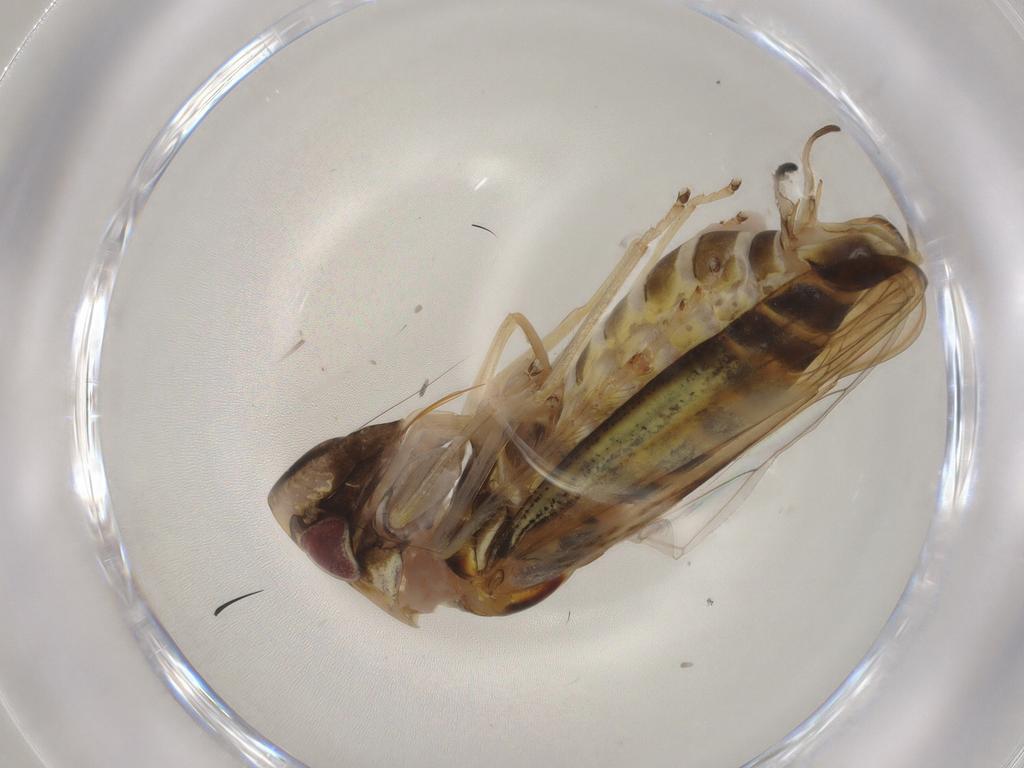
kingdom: Animalia
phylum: Arthropoda
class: Insecta
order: Hemiptera
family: Cicadellidae
